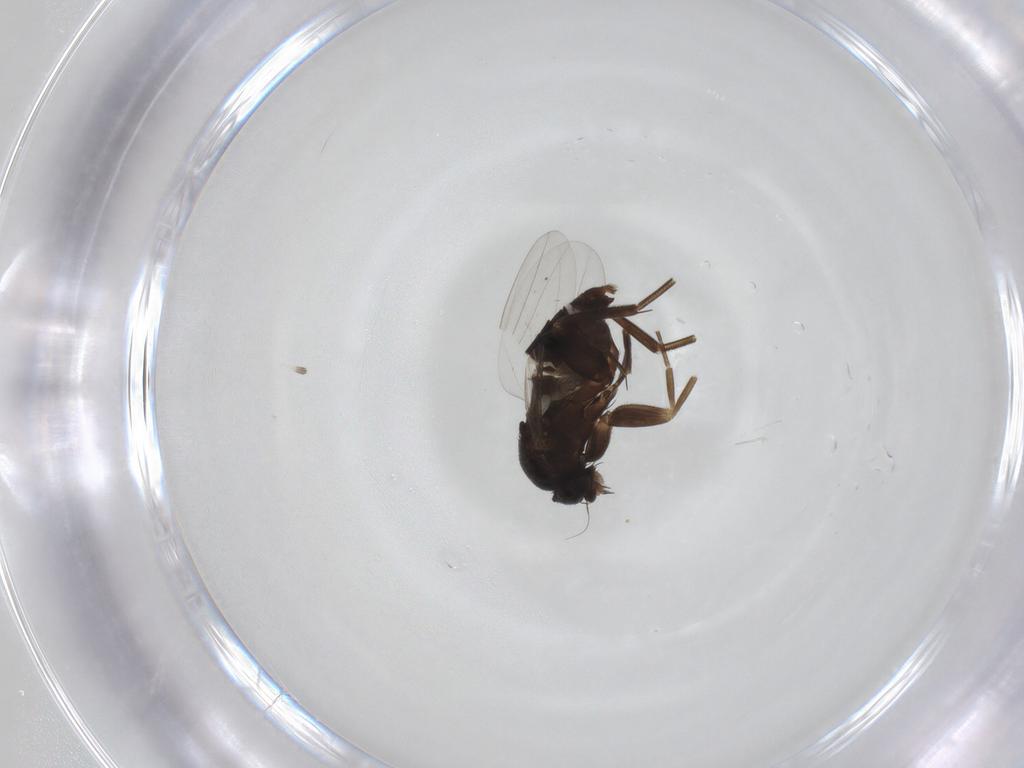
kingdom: Animalia
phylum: Arthropoda
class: Insecta
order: Diptera
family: Phoridae
